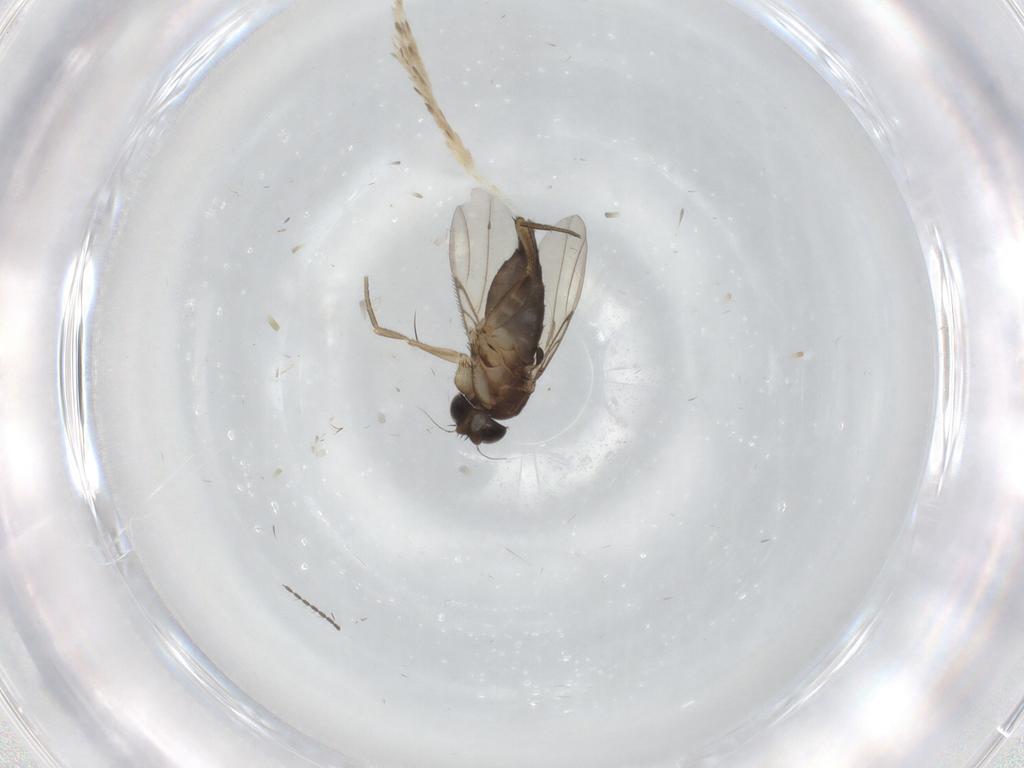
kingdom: Animalia
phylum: Arthropoda
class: Insecta
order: Diptera
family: Cecidomyiidae
